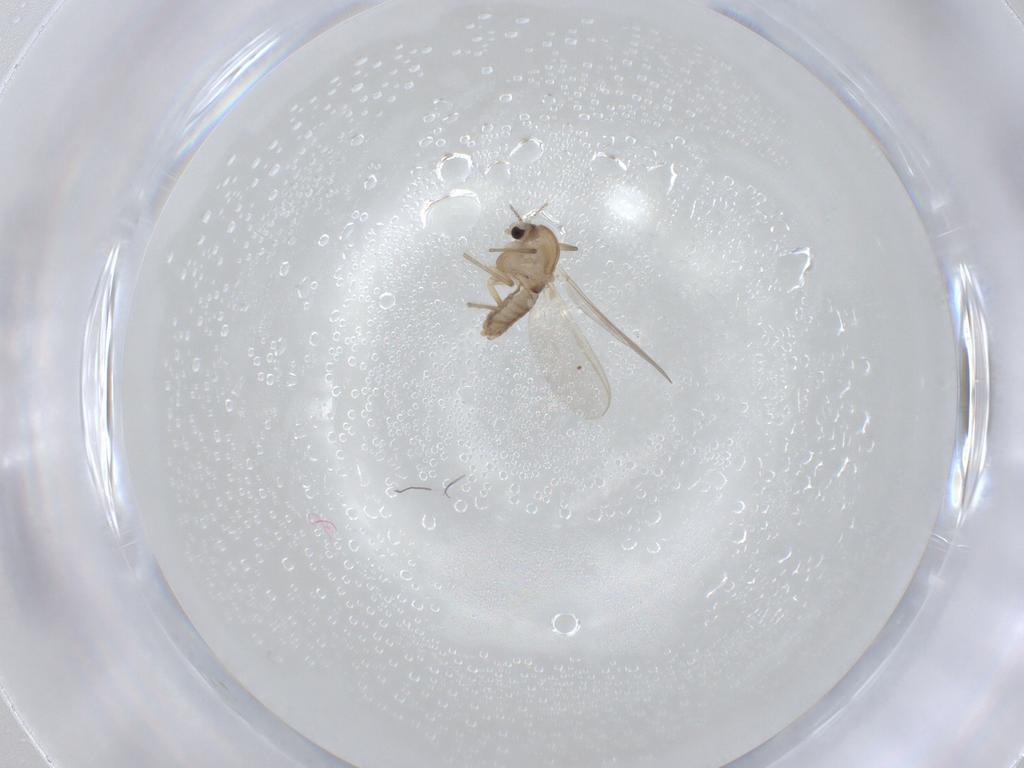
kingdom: Animalia
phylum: Arthropoda
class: Insecta
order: Diptera
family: Chironomidae
